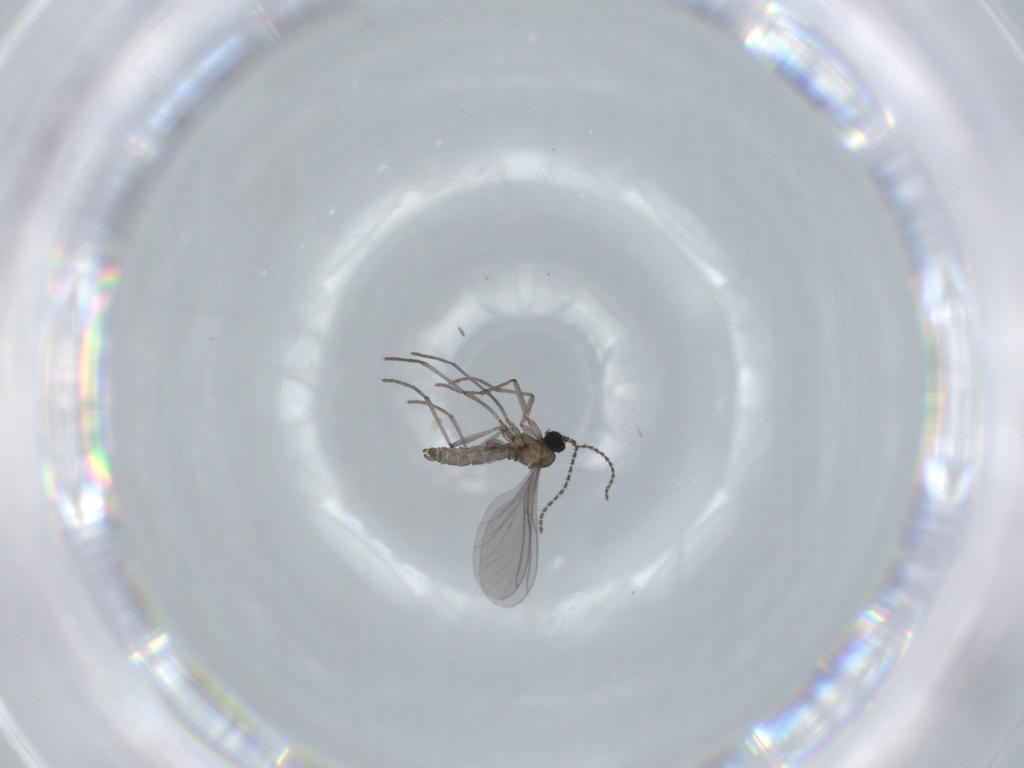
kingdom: Animalia
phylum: Arthropoda
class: Insecta
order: Diptera
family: Sciaridae
